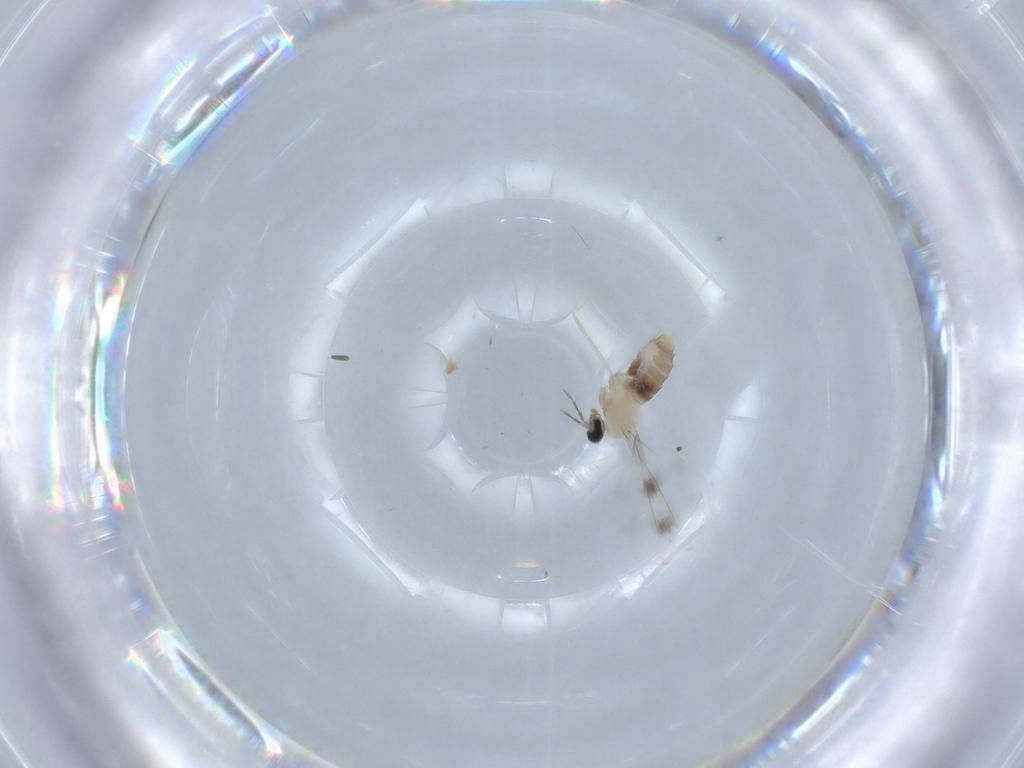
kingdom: Animalia
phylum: Arthropoda
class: Insecta
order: Diptera
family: Cecidomyiidae
